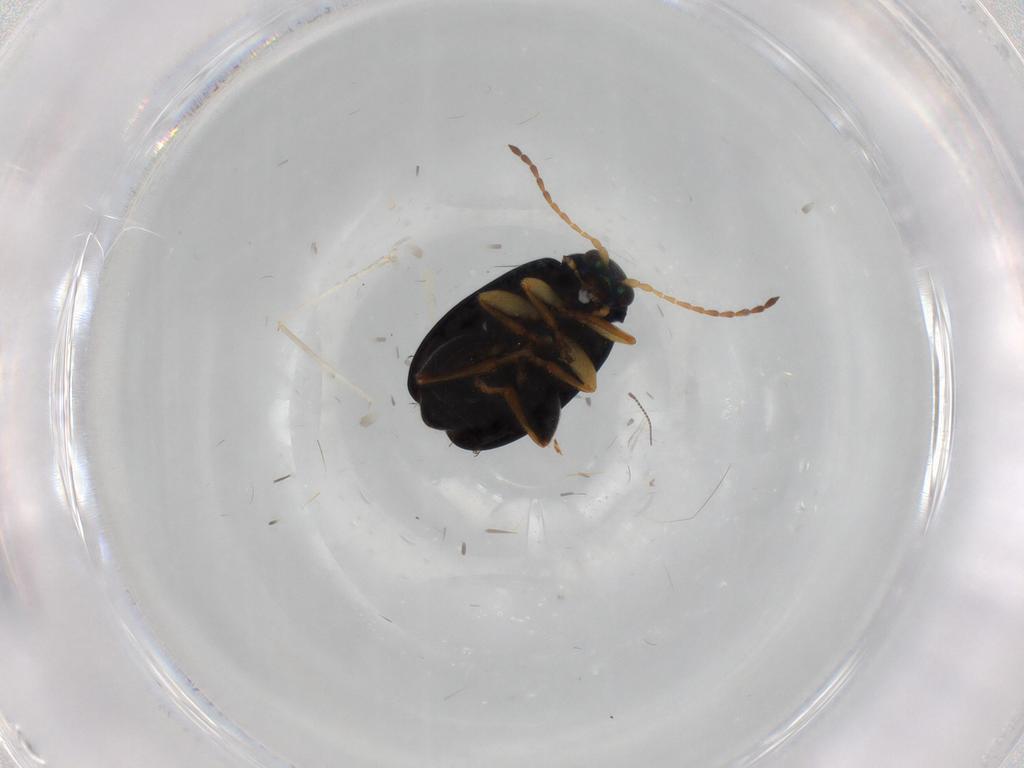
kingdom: Animalia
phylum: Arthropoda
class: Insecta
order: Coleoptera
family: Chrysomelidae
